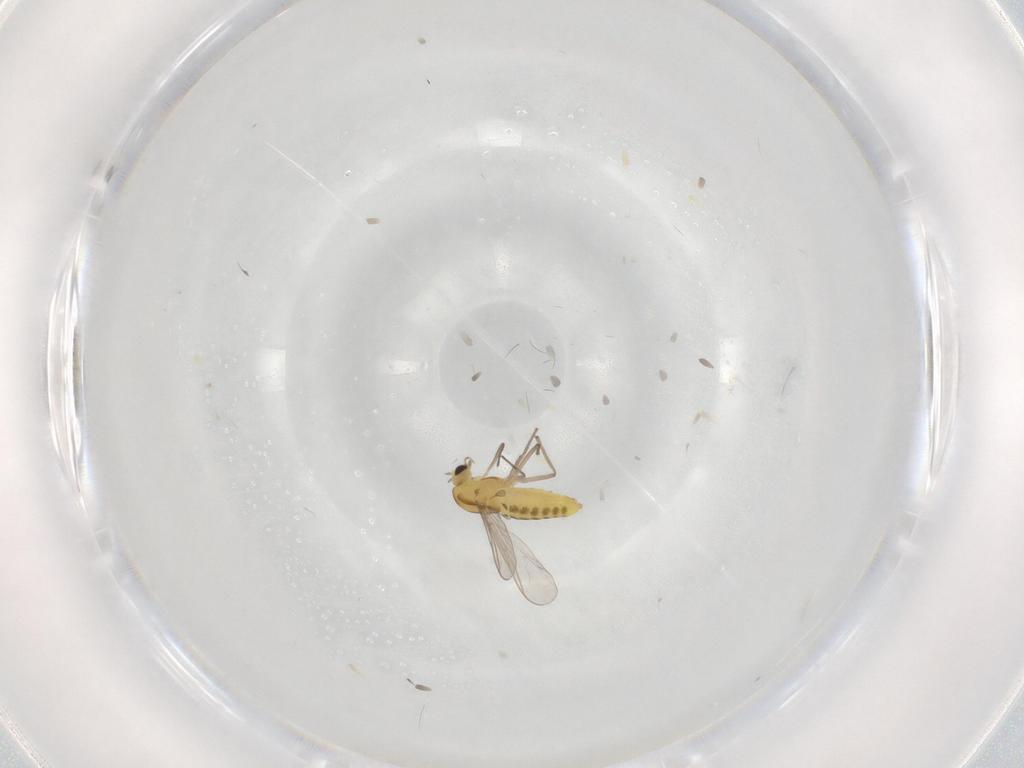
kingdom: Animalia
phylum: Arthropoda
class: Insecta
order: Diptera
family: Chironomidae
